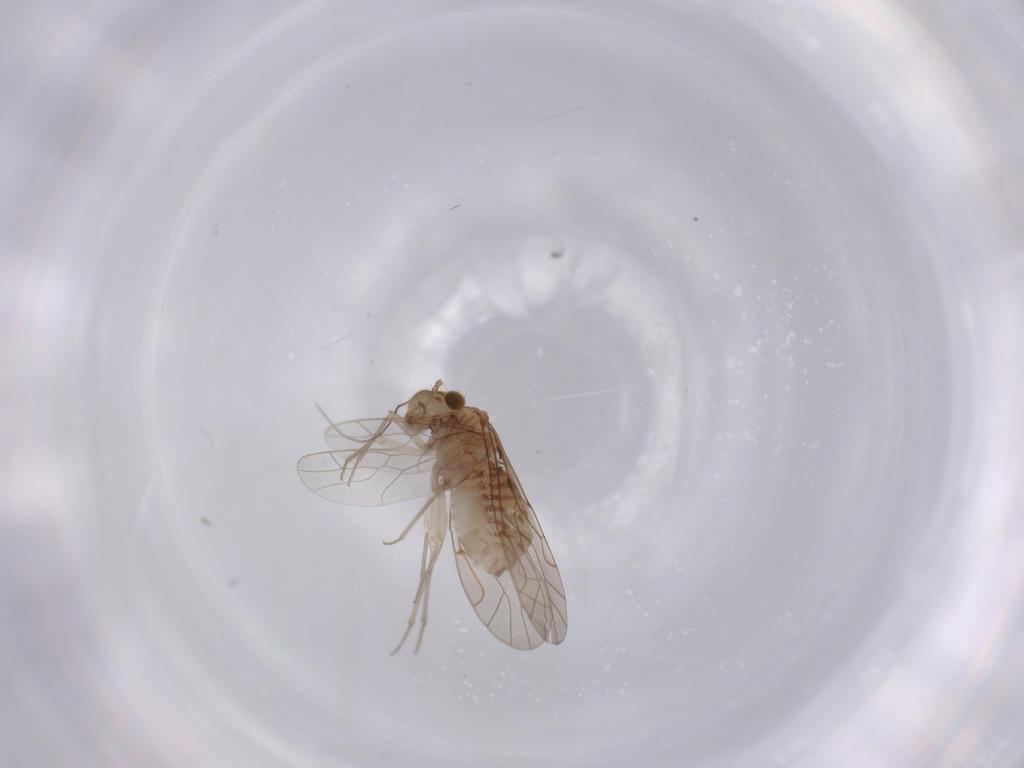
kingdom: Animalia
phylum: Arthropoda
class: Insecta
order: Psocodea
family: Lachesillidae
